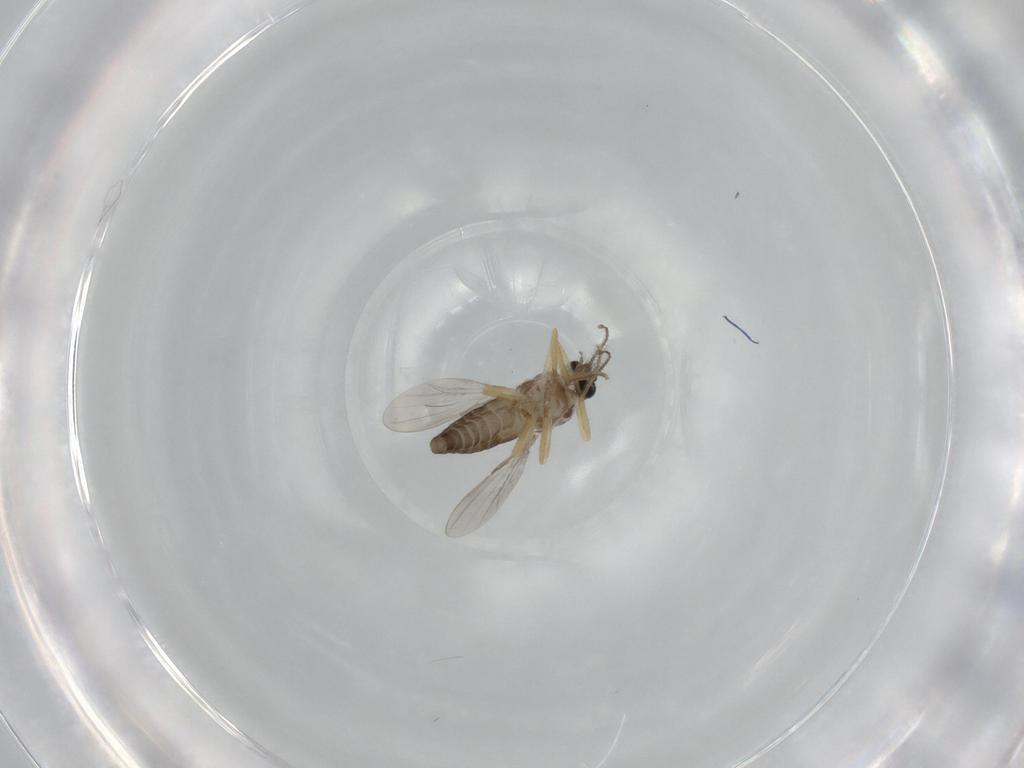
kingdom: Animalia
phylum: Arthropoda
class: Insecta
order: Diptera
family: Ceratopogonidae
